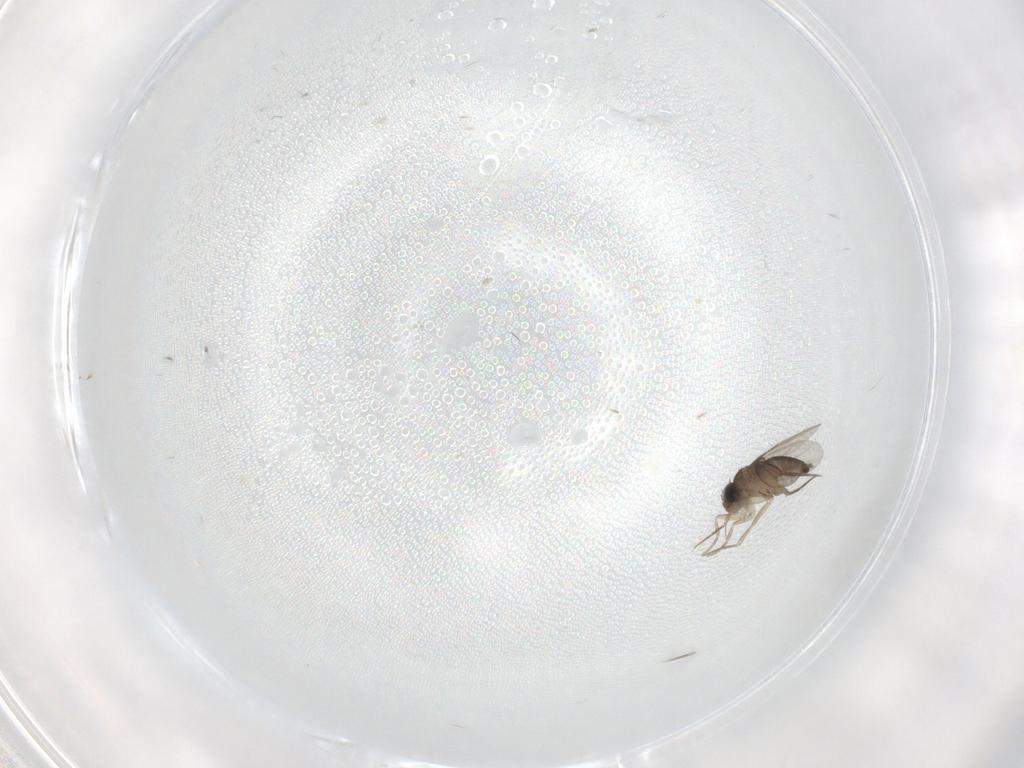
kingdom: Animalia
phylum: Arthropoda
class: Insecta
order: Diptera
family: Phoridae
